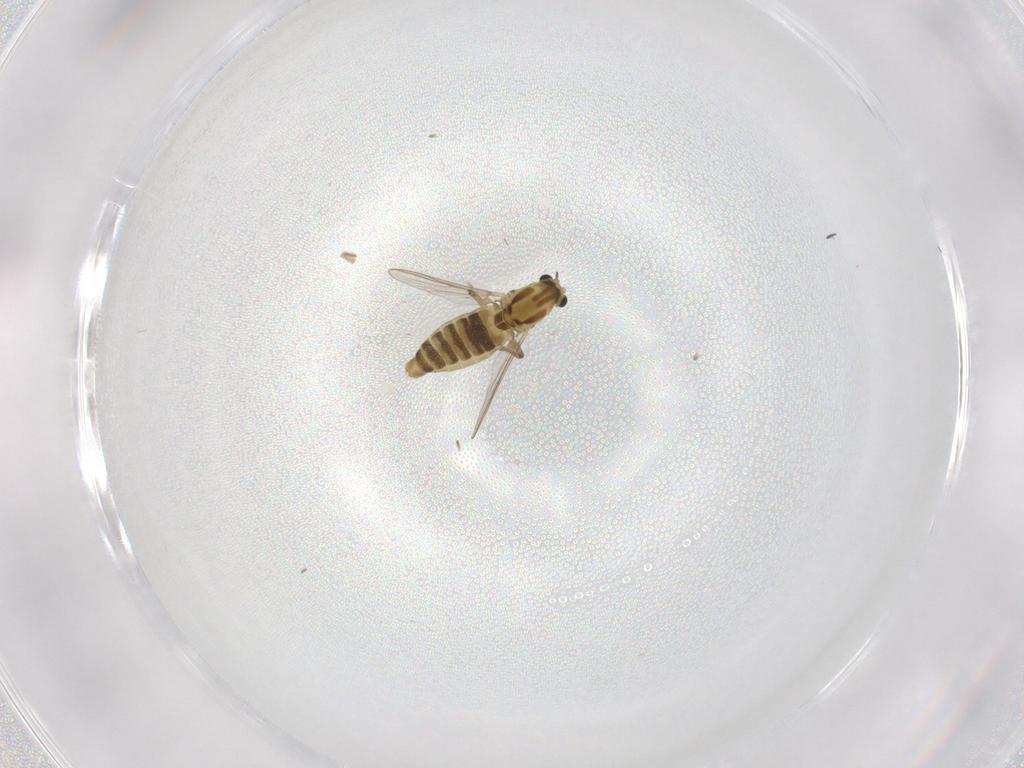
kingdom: Animalia
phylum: Arthropoda
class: Insecta
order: Diptera
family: Chironomidae
